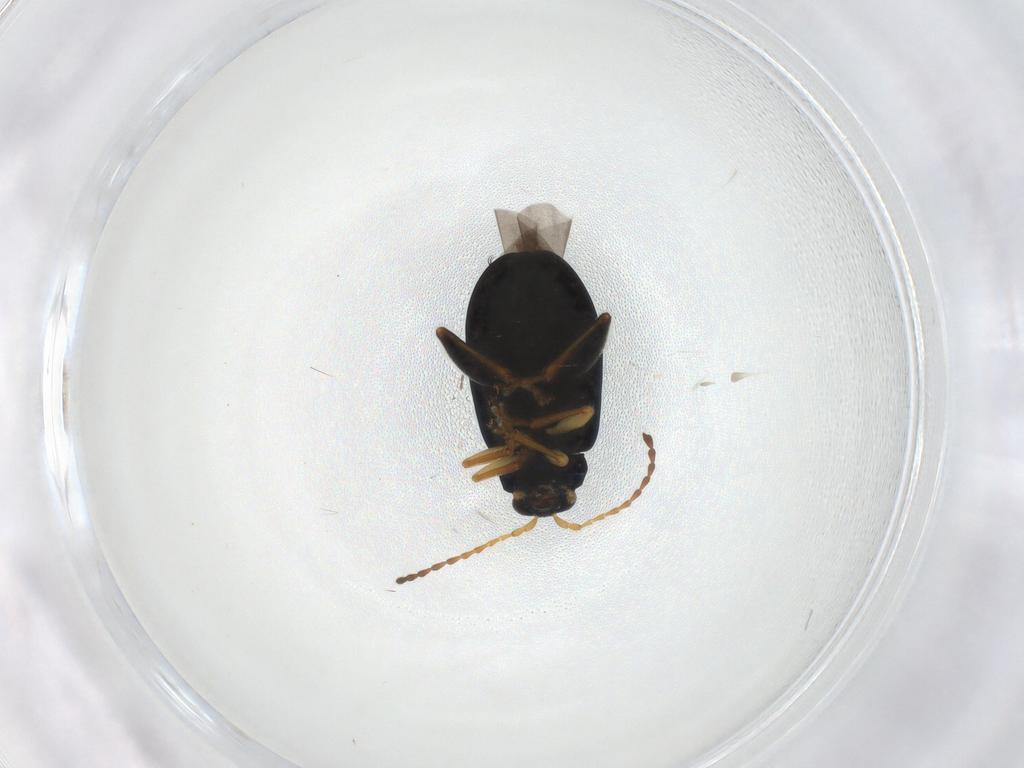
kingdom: Animalia
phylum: Arthropoda
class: Insecta
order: Coleoptera
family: Chrysomelidae
